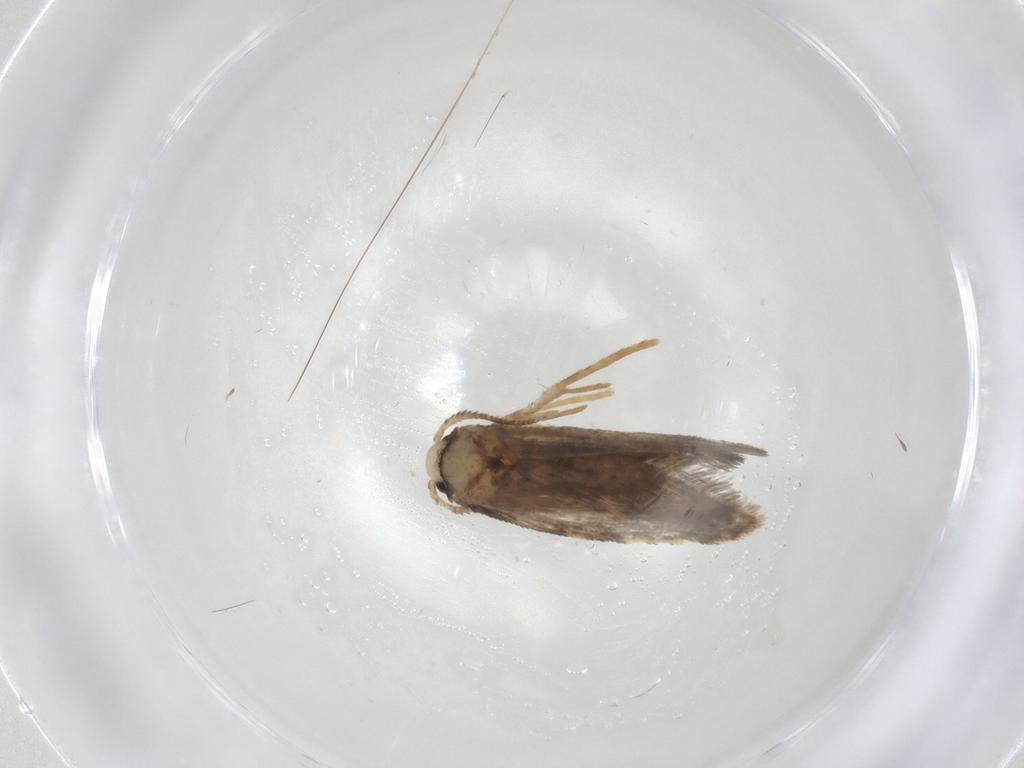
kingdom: Animalia
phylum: Arthropoda
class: Insecta
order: Lepidoptera
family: Psychidae
